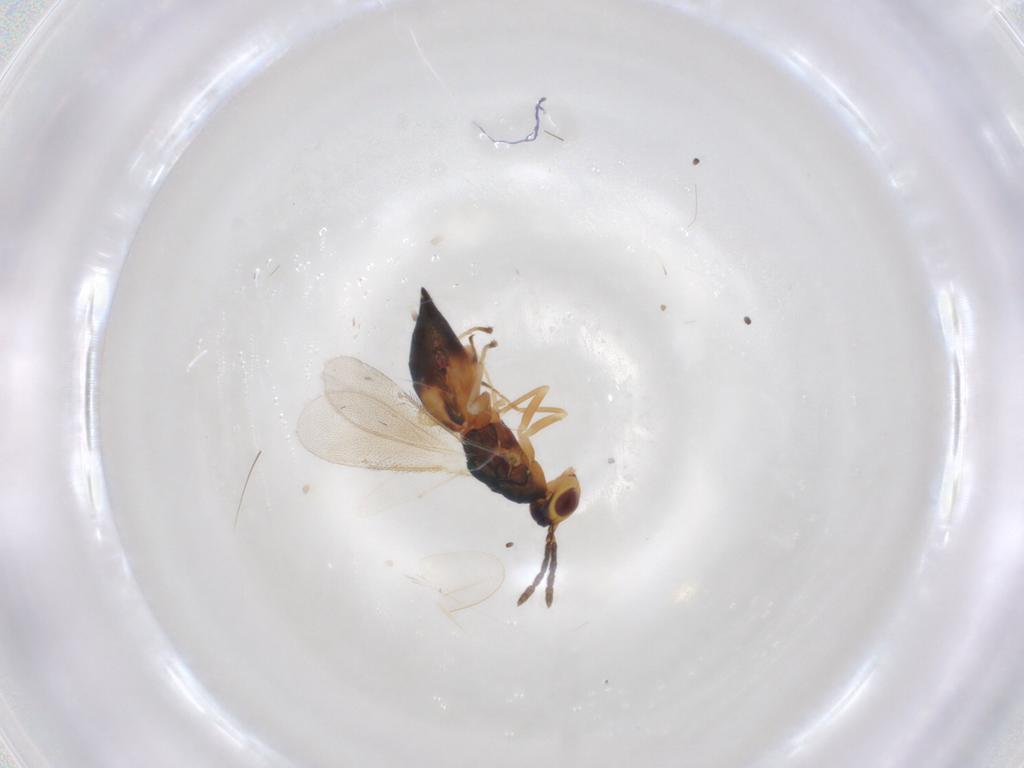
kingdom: Animalia
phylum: Arthropoda
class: Insecta
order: Hymenoptera
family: Eulophidae
